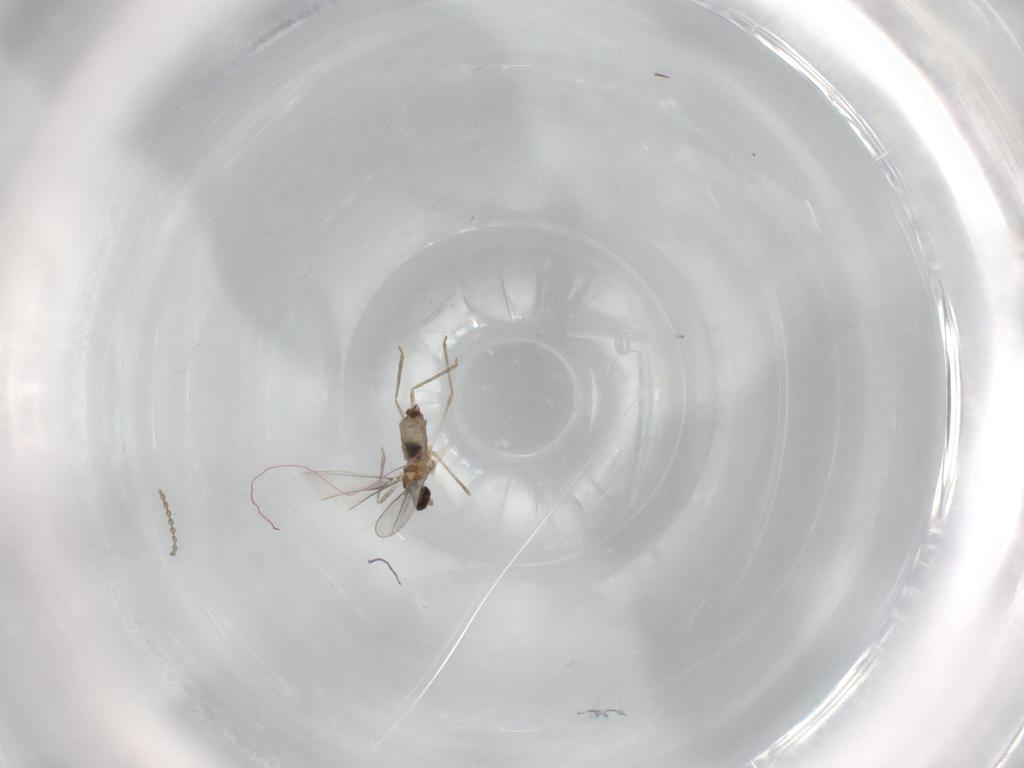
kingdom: Animalia
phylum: Arthropoda
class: Insecta
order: Diptera
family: Cecidomyiidae
